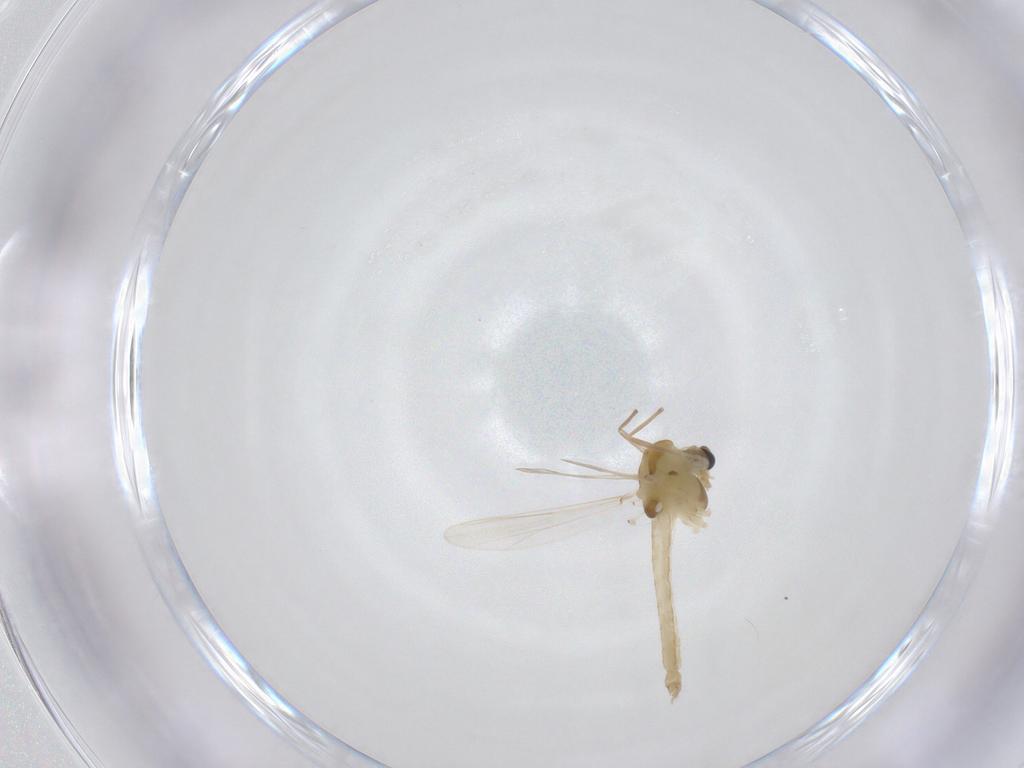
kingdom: Animalia
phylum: Arthropoda
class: Insecta
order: Diptera
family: Chironomidae
